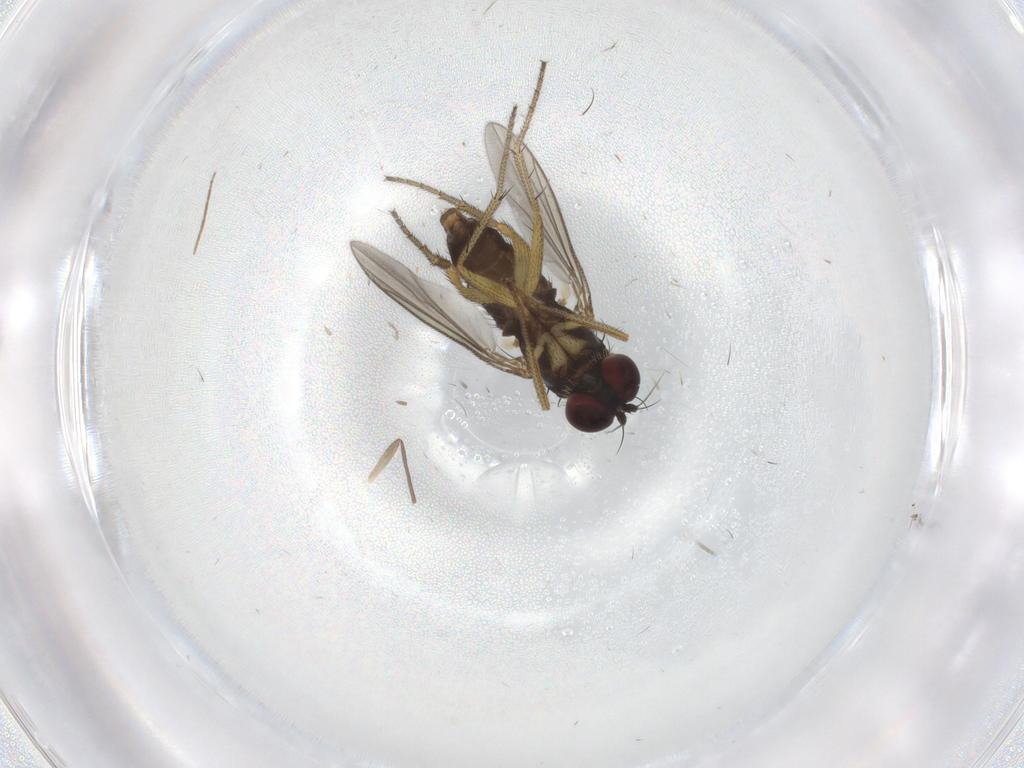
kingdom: Animalia
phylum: Arthropoda
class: Insecta
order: Diptera
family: Chironomidae
